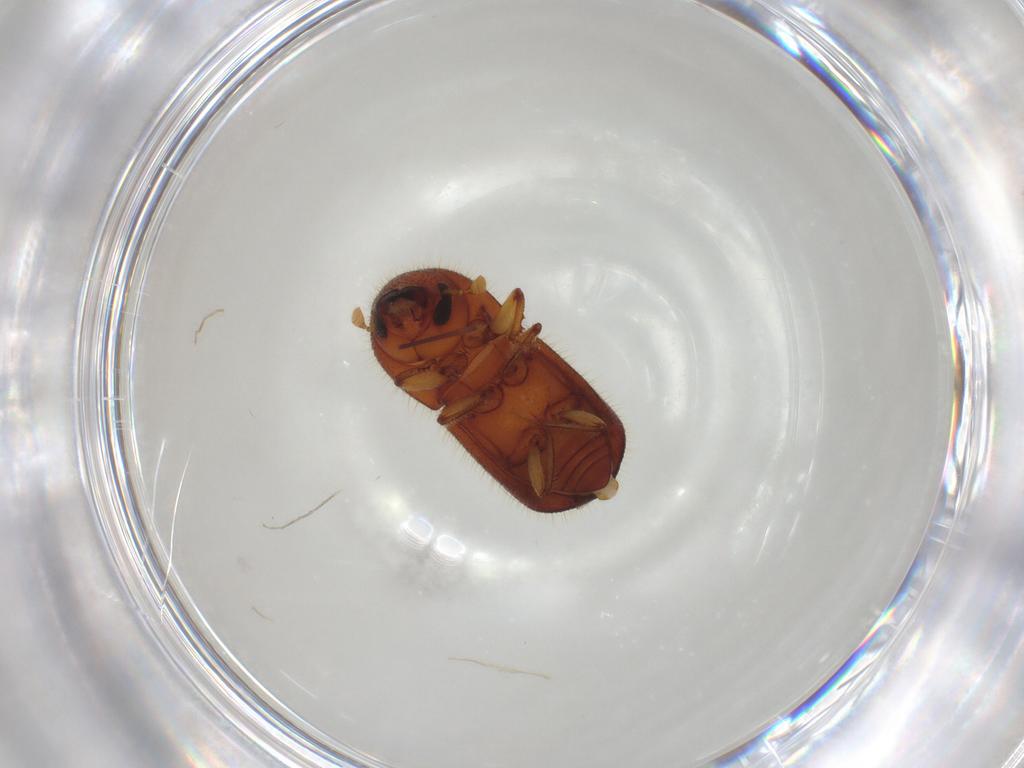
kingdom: Animalia
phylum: Arthropoda
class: Insecta
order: Coleoptera
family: Curculionidae
